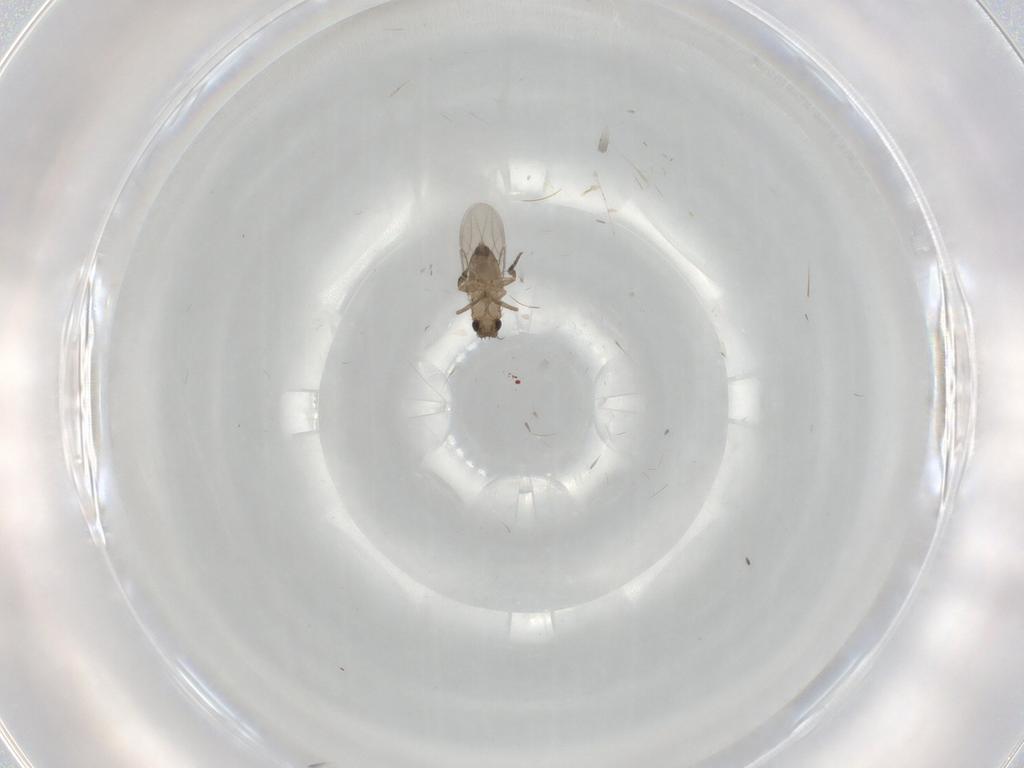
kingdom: Animalia
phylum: Arthropoda
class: Insecta
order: Diptera
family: Phoridae
